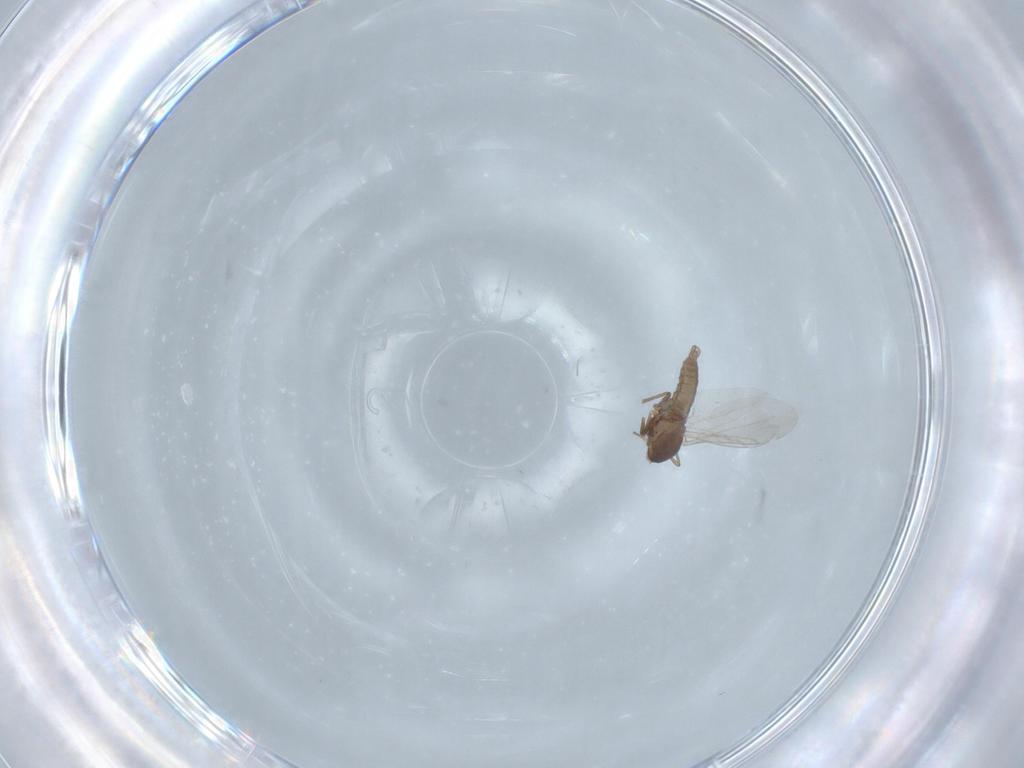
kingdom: Animalia
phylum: Arthropoda
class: Insecta
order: Diptera
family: Cecidomyiidae
